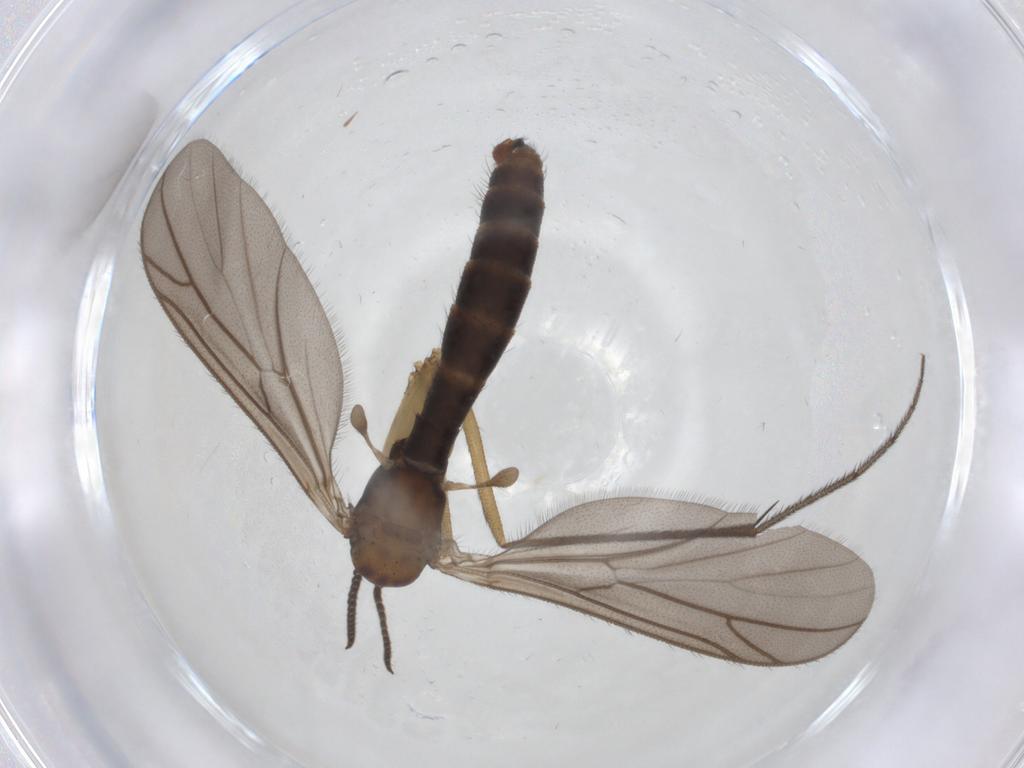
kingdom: Animalia
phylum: Arthropoda
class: Insecta
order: Diptera
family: Ditomyiidae
